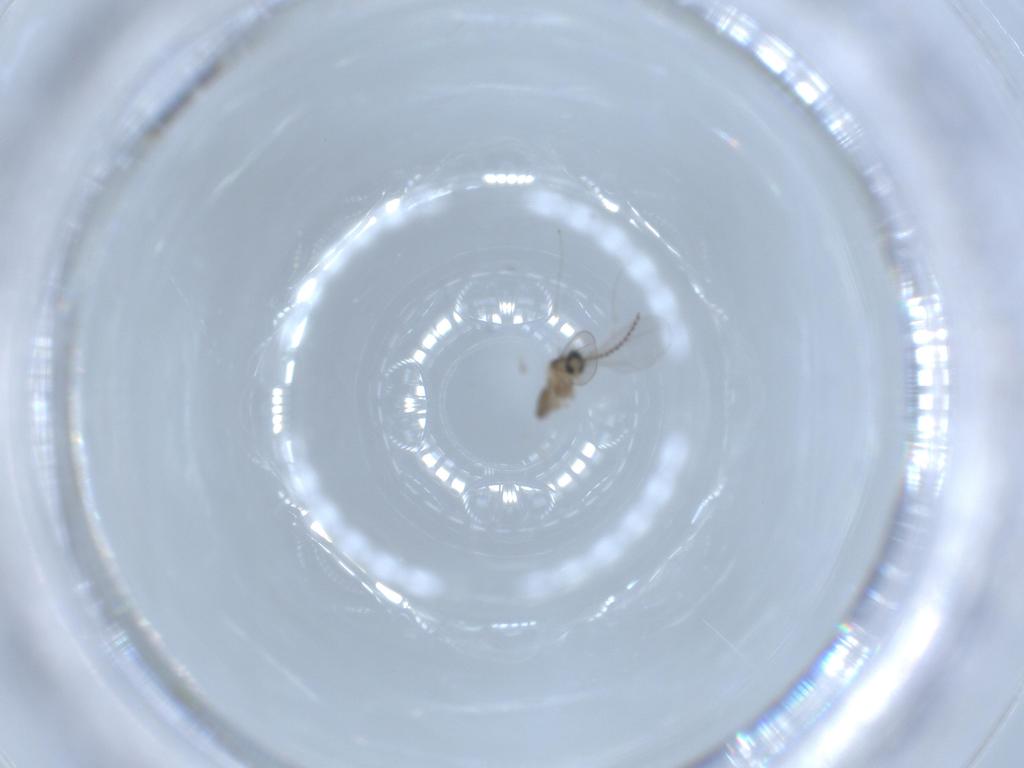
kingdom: Animalia
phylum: Arthropoda
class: Insecta
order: Diptera
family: Cecidomyiidae
